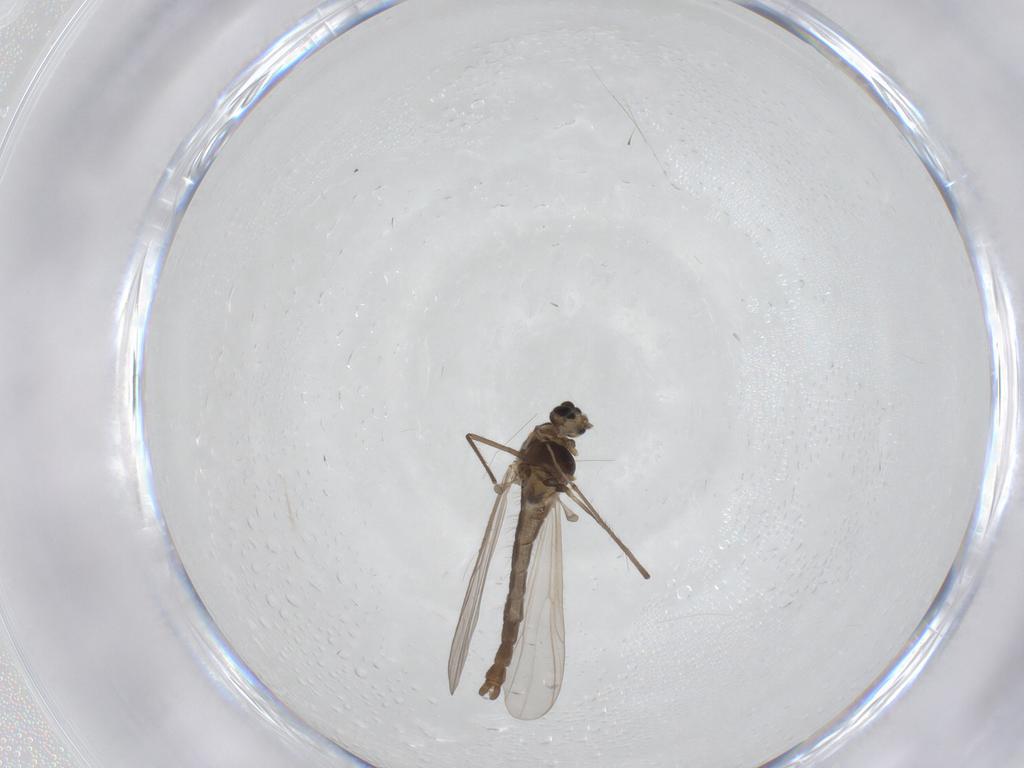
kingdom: Animalia
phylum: Arthropoda
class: Insecta
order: Diptera
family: Chironomidae
